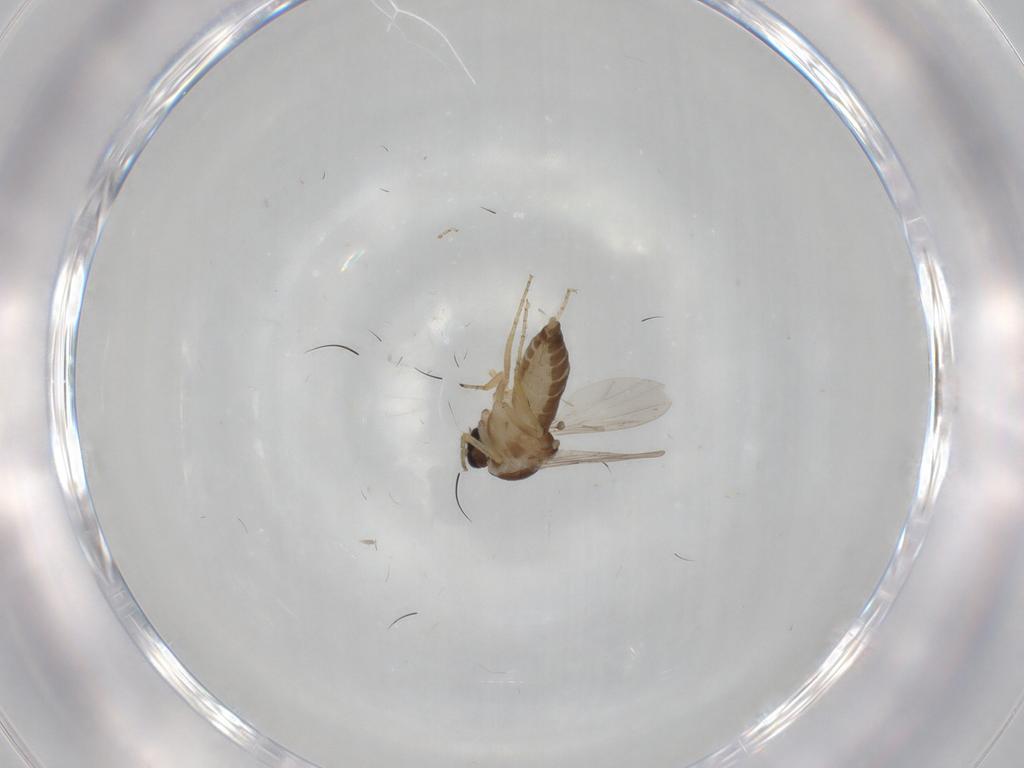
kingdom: Animalia
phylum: Arthropoda
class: Insecta
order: Diptera
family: Ceratopogonidae
